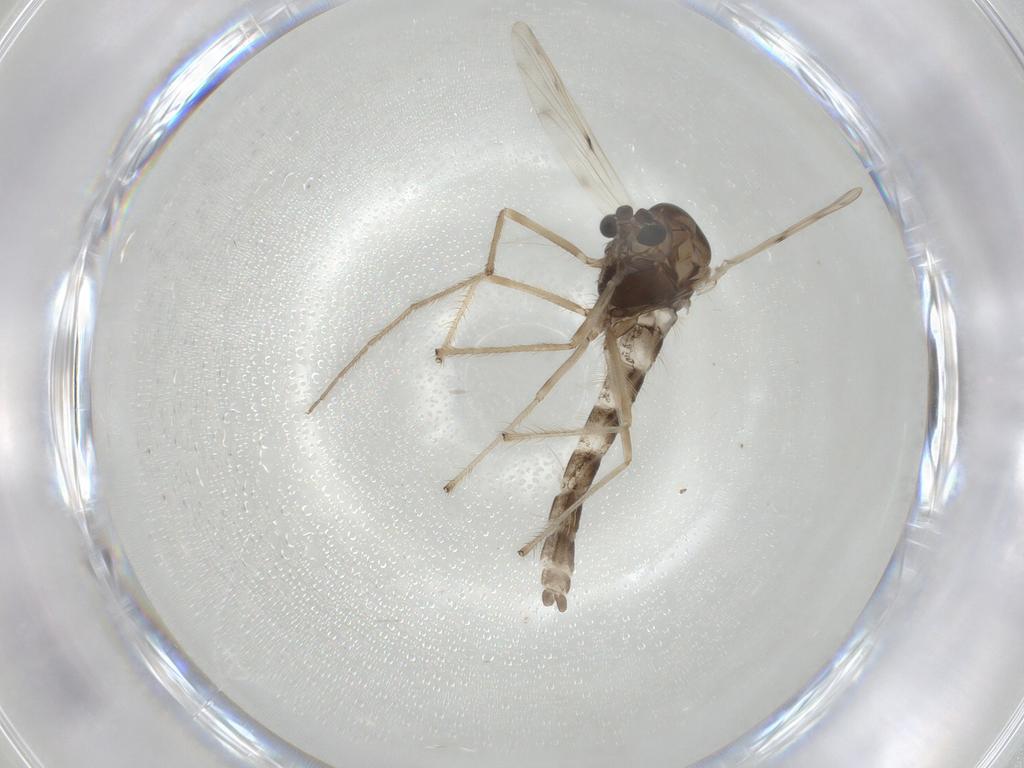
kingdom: Animalia
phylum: Arthropoda
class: Insecta
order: Diptera
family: Chironomidae
